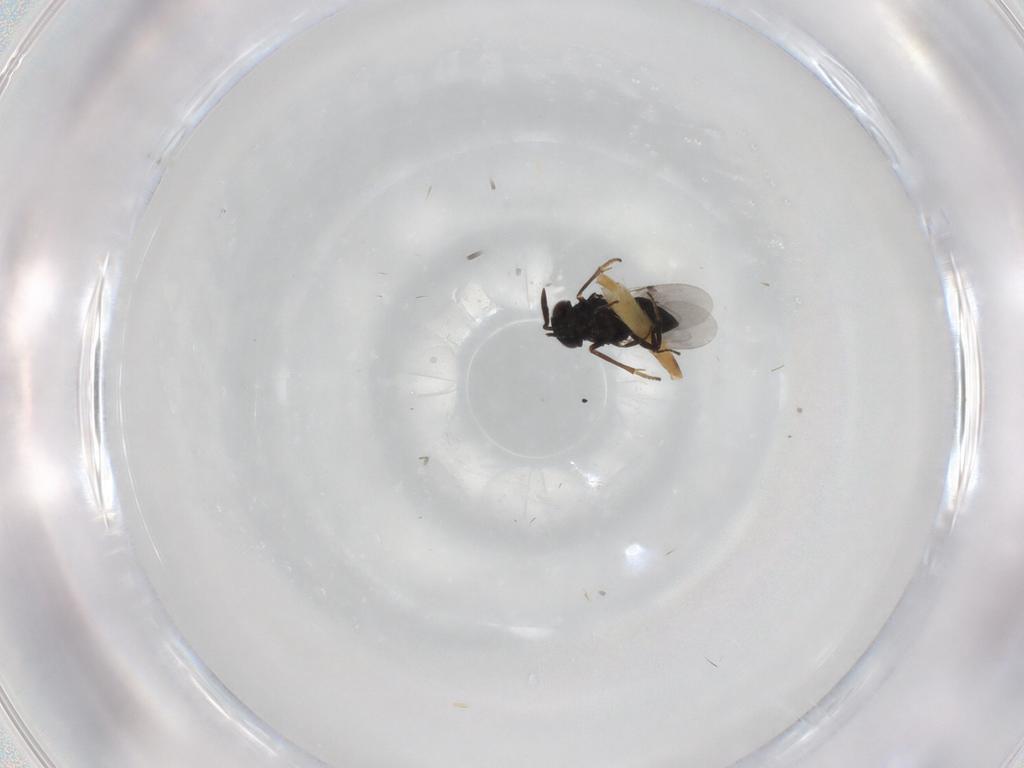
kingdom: Animalia
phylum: Arthropoda
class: Insecta
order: Hymenoptera
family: Encyrtidae
